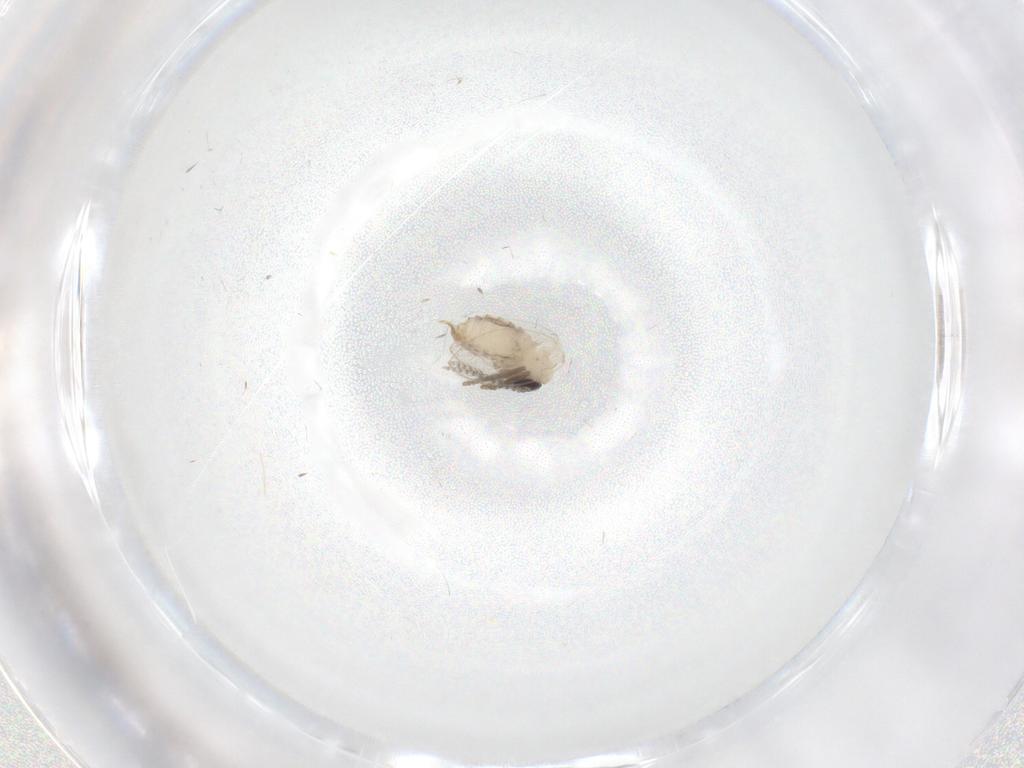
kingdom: Animalia
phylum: Arthropoda
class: Insecta
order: Diptera
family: Psychodidae
